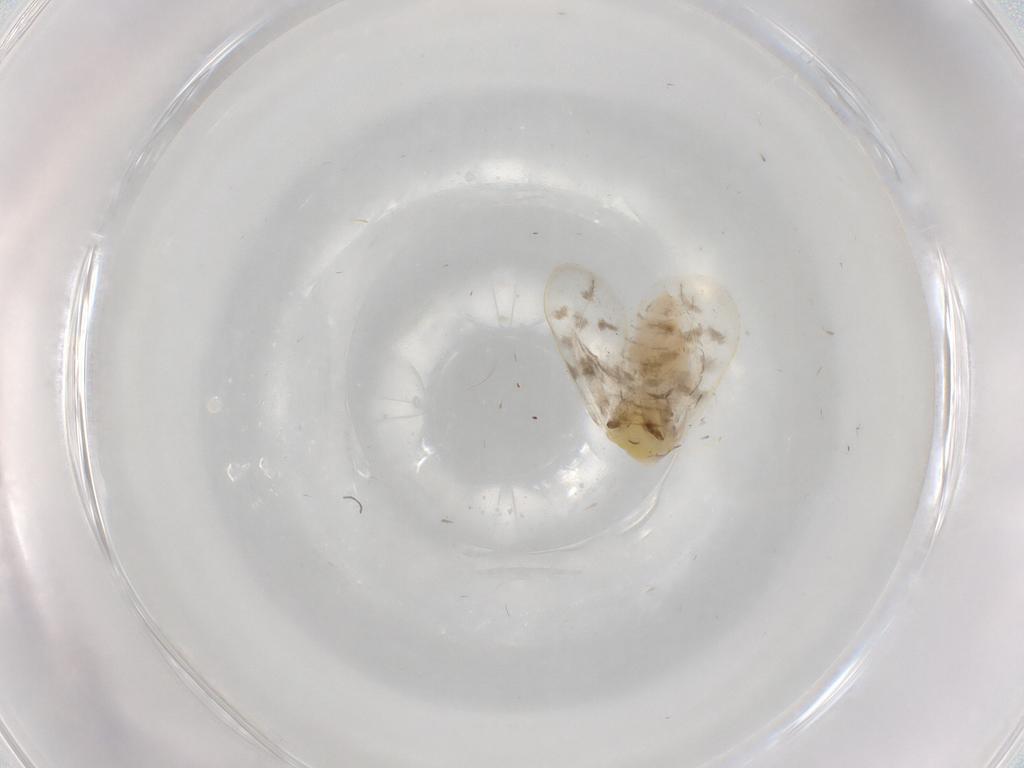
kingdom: Animalia
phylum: Arthropoda
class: Insecta
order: Hemiptera
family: Aleyrodidae
